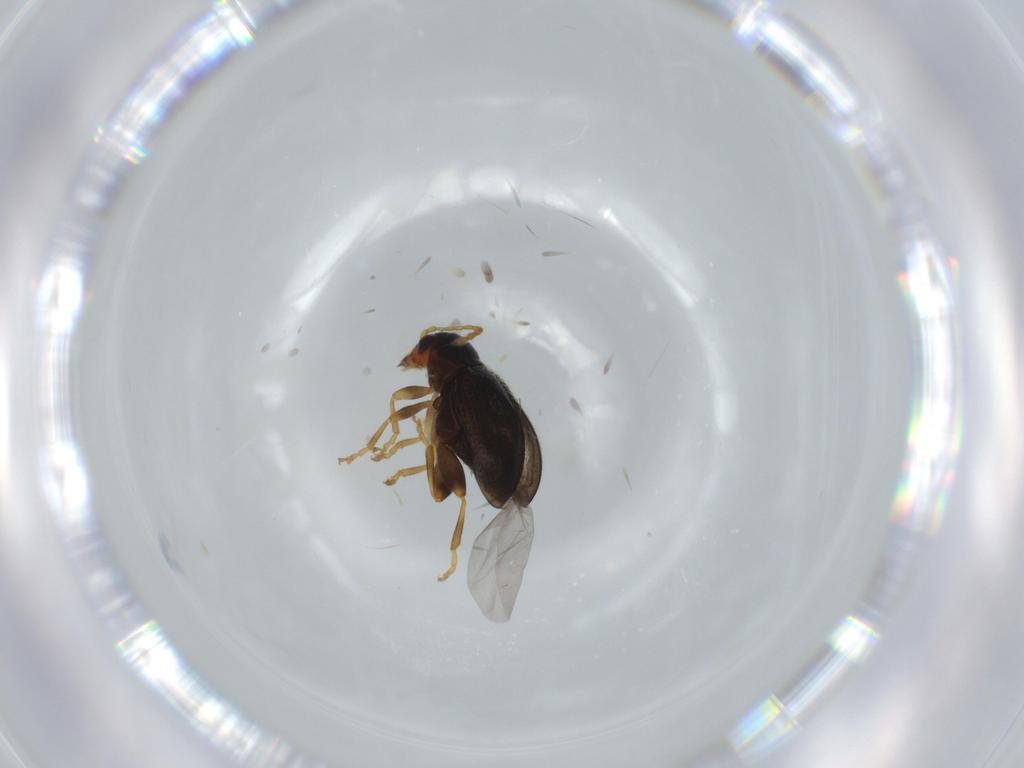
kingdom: Animalia
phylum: Arthropoda
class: Insecta
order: Coleoptera
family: Chrysomelidae
